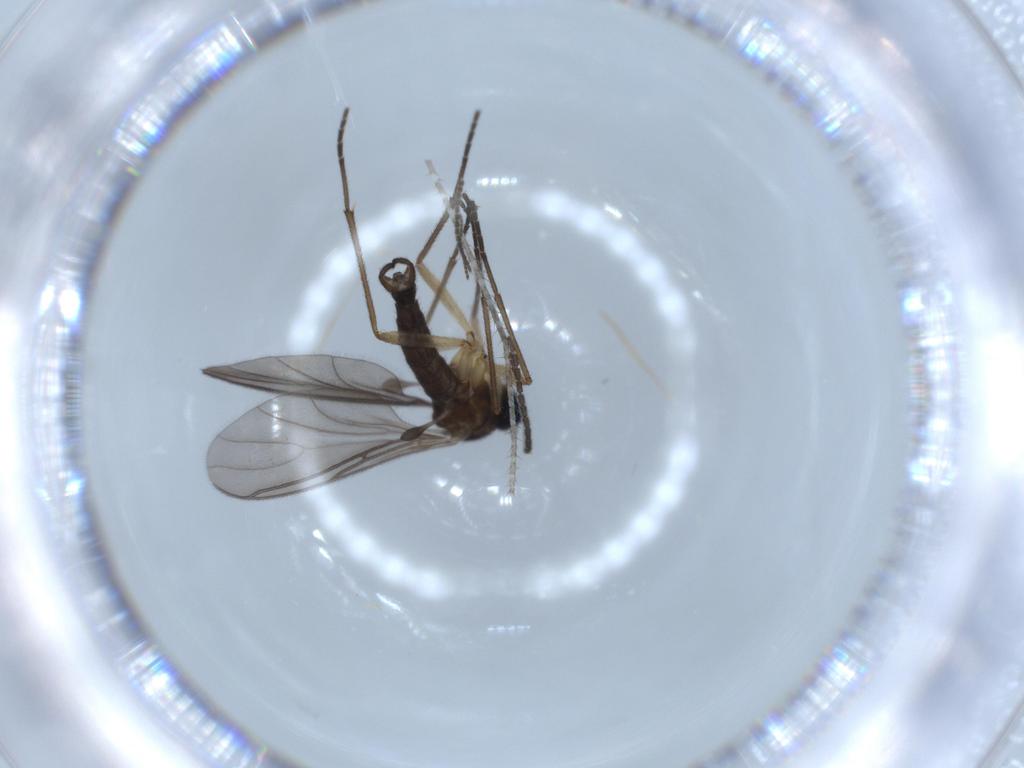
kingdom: Animalia
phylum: Arthropoda
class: Insecta
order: Diptera
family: Sciaridae
